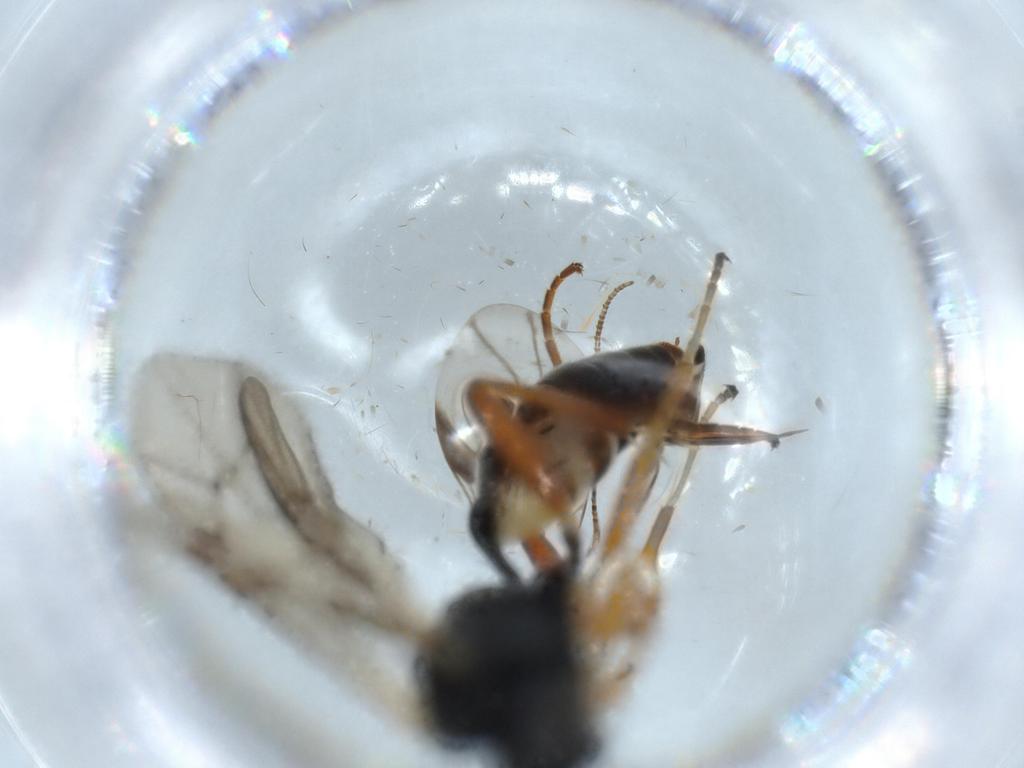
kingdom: Animalia
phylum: Arthropoda
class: Insecta
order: Hymenoptera
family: Ichneumonidae
